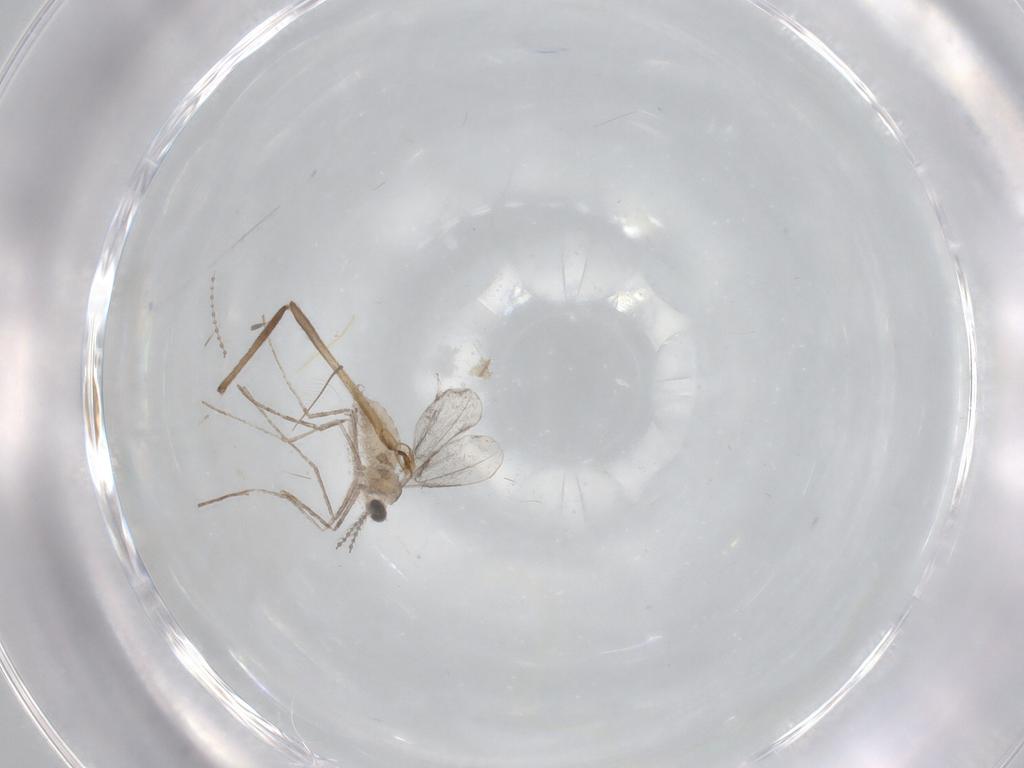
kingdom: Animalia
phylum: Arthropoda
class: Insecta
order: Diptera
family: Cecidomyiidae
